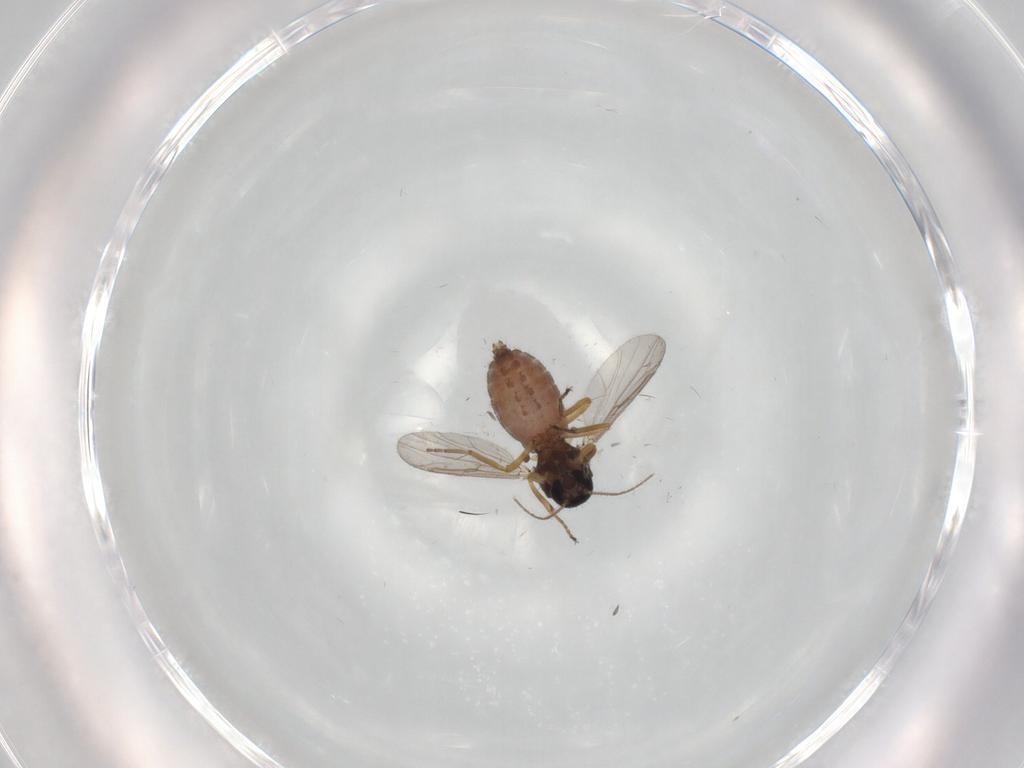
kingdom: Animalia
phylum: Arthropoda
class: Insecta
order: Diptera
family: Ceratopogonidae
